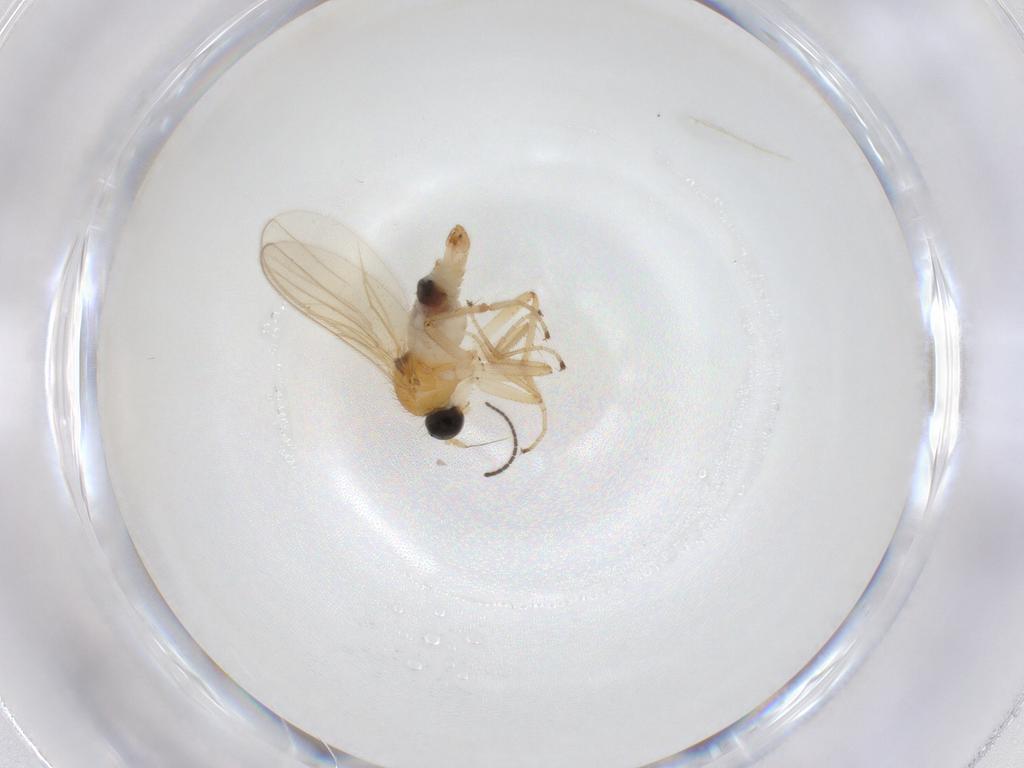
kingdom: Animalia
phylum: Arthropoda
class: Insecta
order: Diptera
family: Hybotidae
